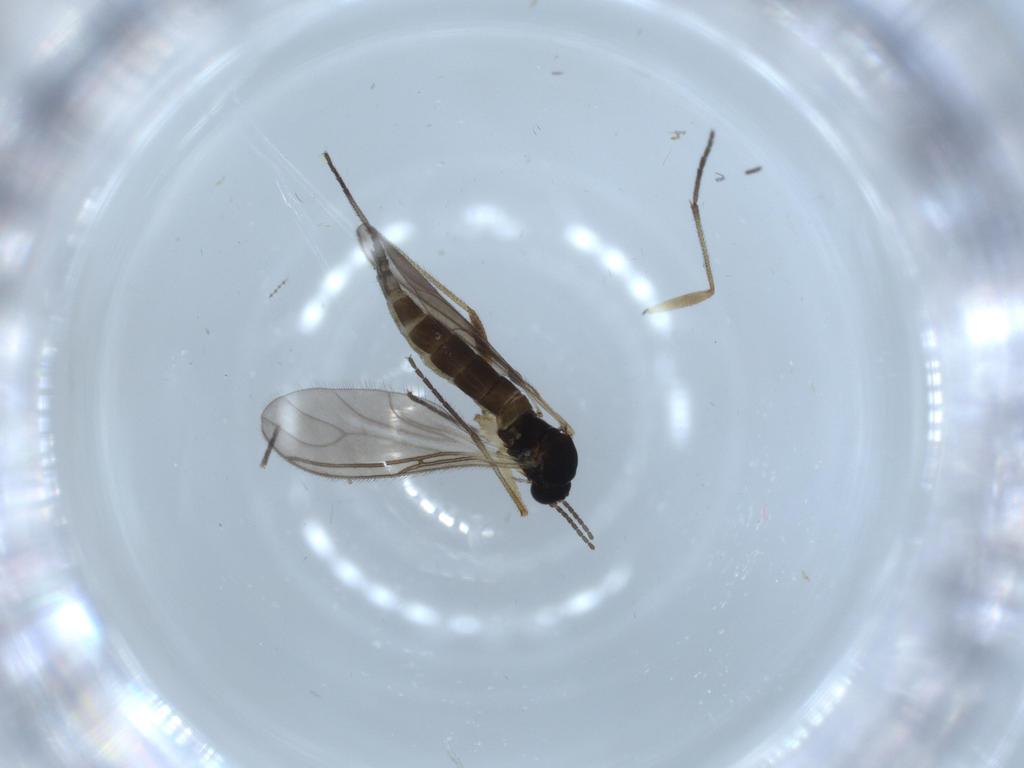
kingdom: Animalia
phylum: Arthropoda
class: Insecta
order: Diptera
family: Sciaridae
